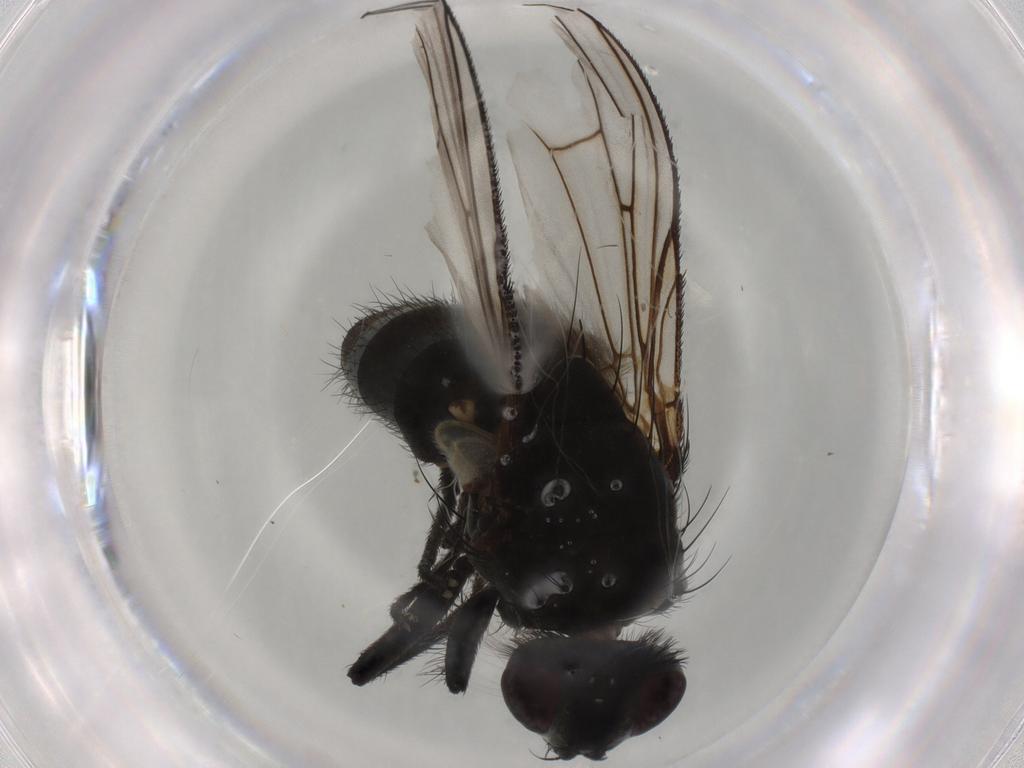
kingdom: Animalia
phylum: Arthropoda
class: Insecta
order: Diptera
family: Muscidae
